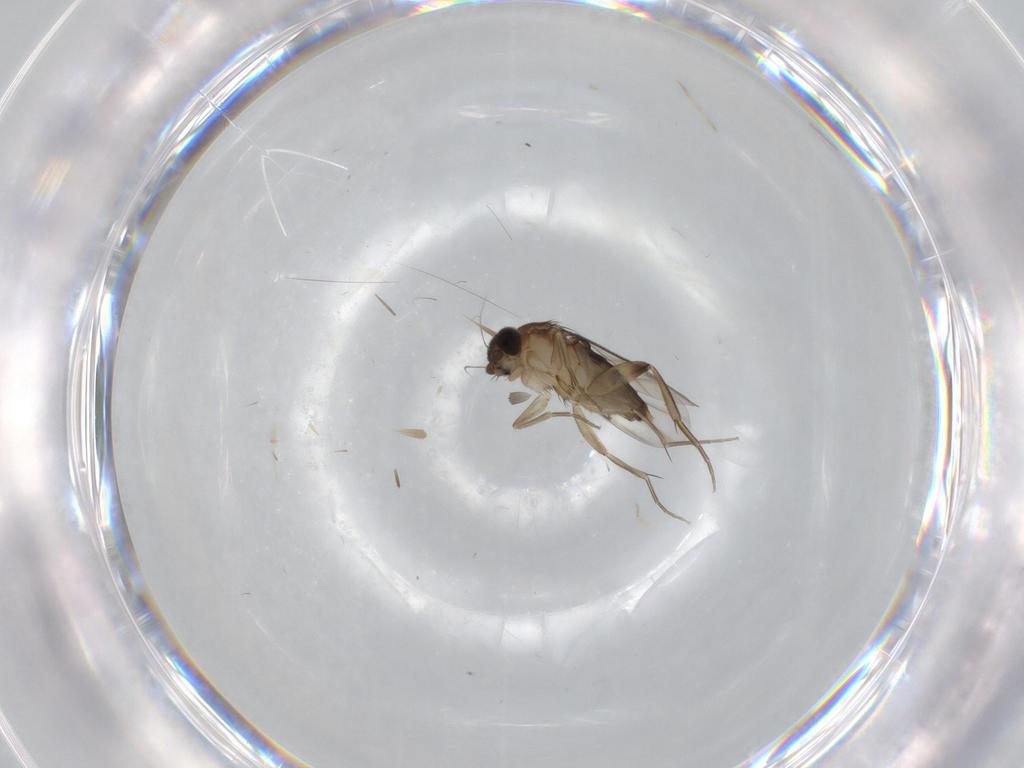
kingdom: Animalia
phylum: Arthropoda
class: Insecta
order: Diptera
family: Phoridae
